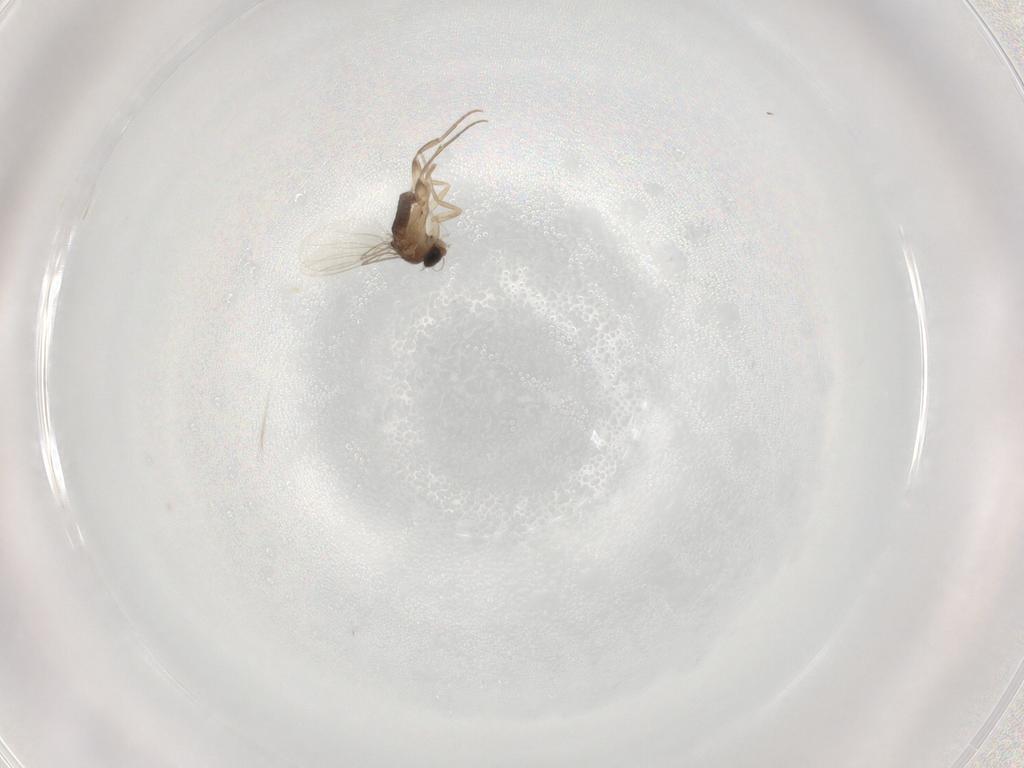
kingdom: Animalia
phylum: Arthropoda
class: Insecta
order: Diptera
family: Phoridae
